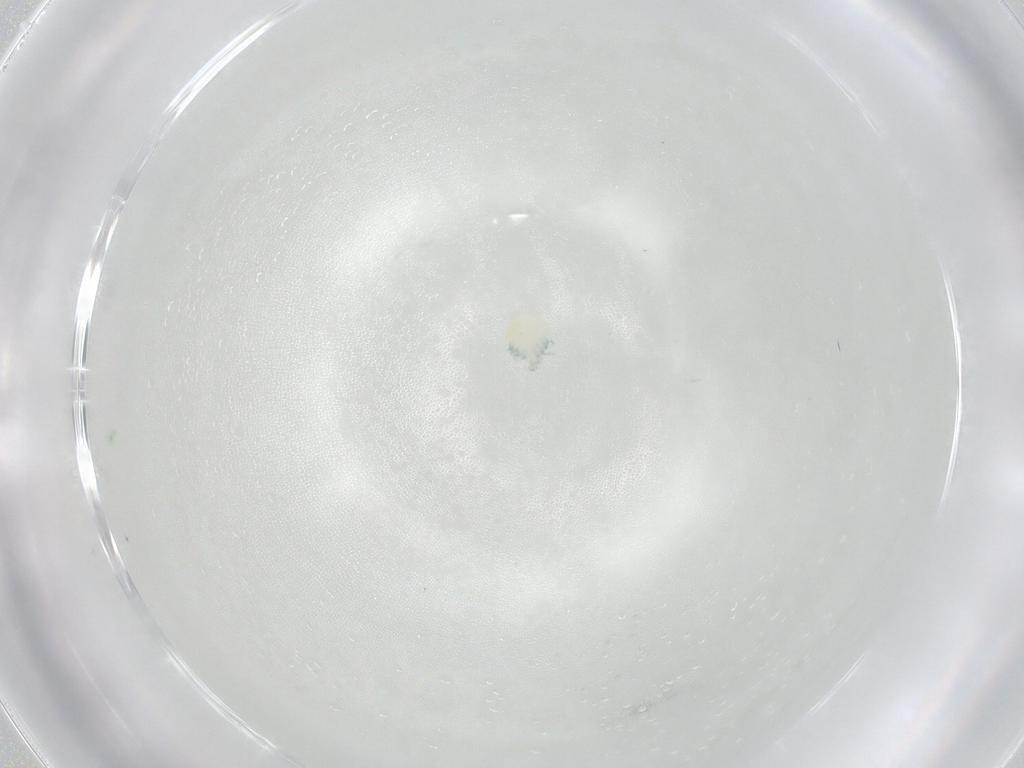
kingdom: Animalia
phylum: Arthropoda
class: Arachnida
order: Trombidiformes
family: Arrenuridae
